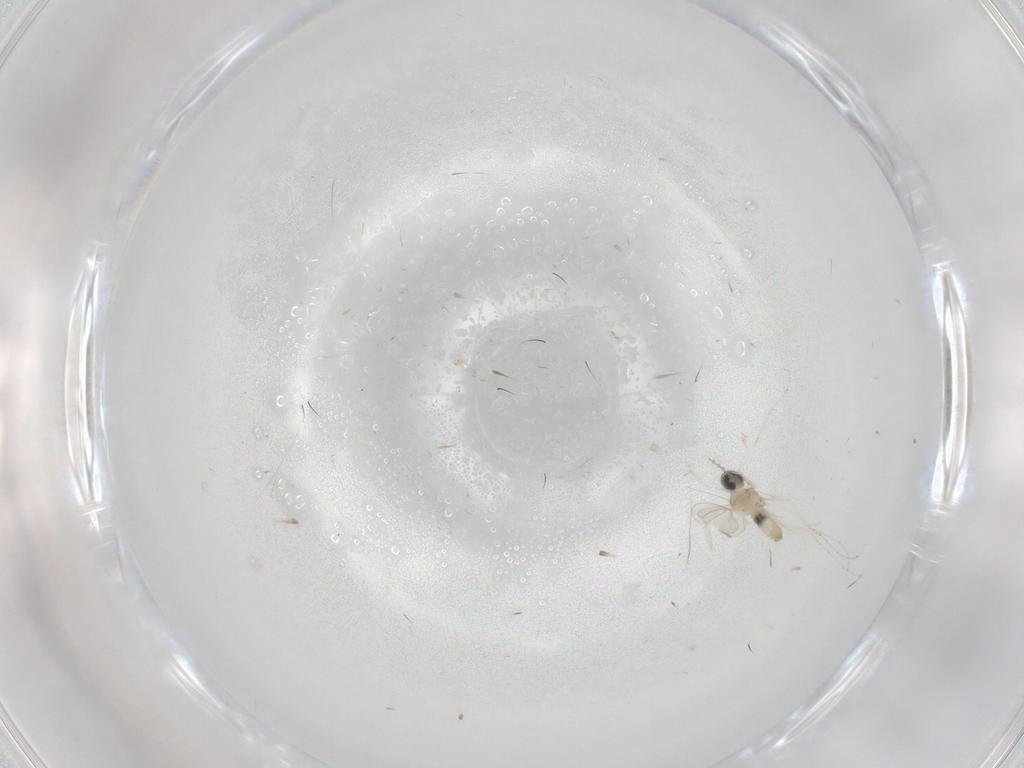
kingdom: Animalia
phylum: Arthropoda
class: Insecta
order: Diptera
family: Cecidomyiidae
